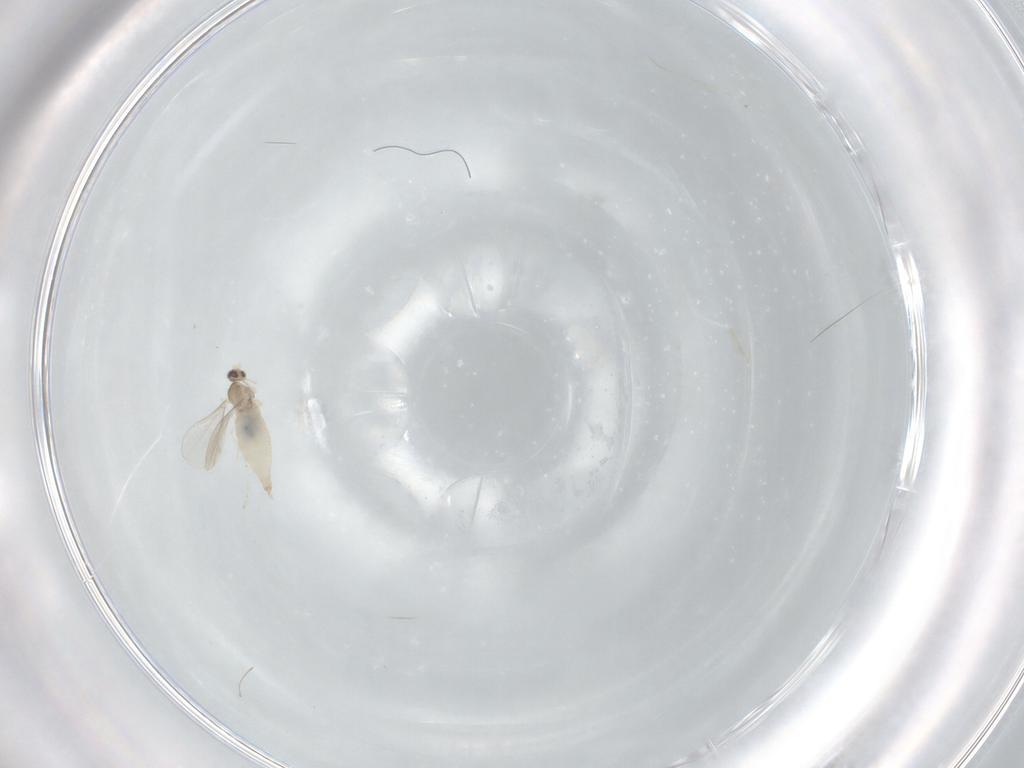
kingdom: Animalia
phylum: Arthropoda
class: Insecta
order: Diptera
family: Cecidomyiidae
